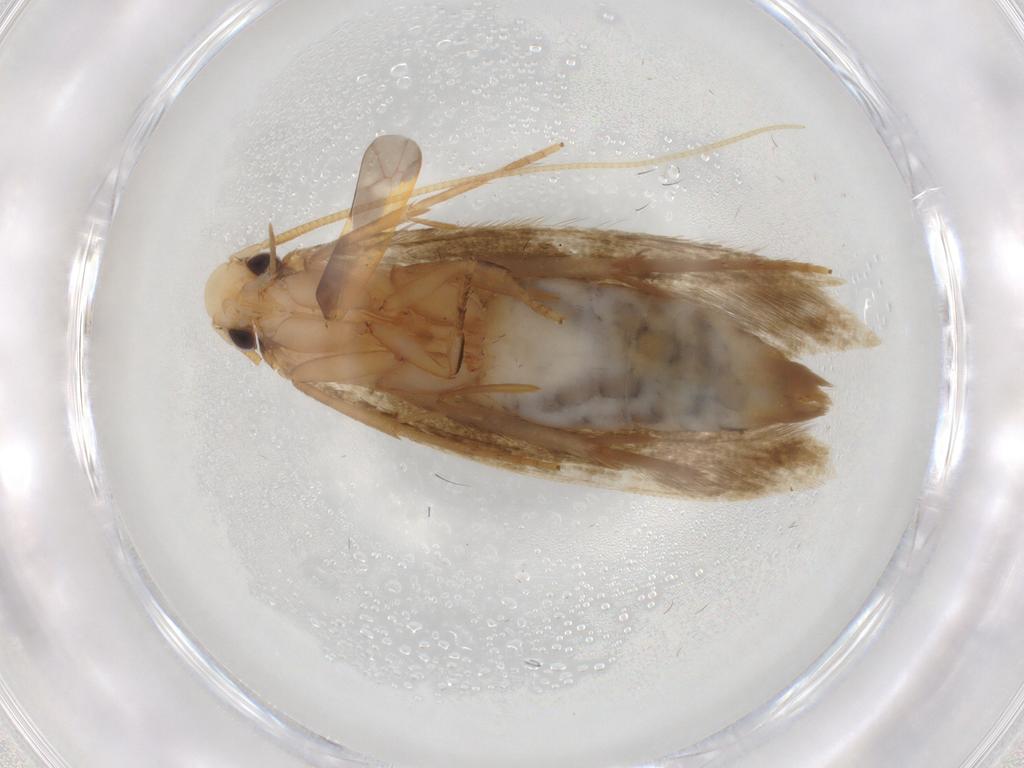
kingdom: Animalia
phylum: Arthropoda
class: Insecta
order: Lepidoptera
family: Tineidae
